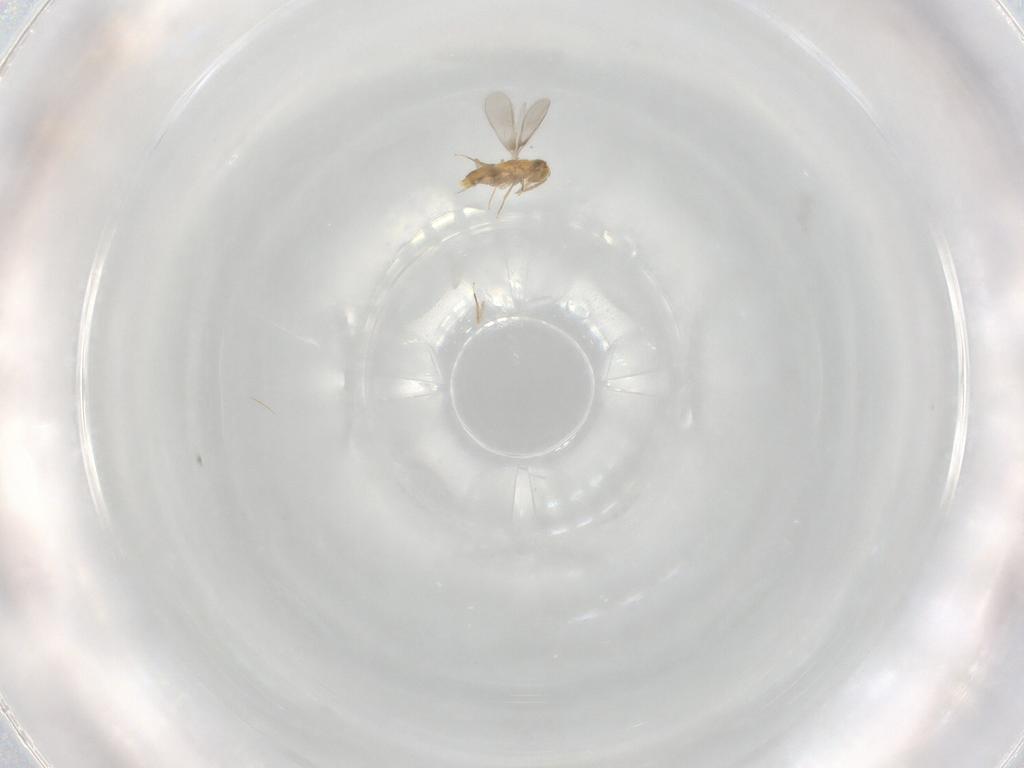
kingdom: Animalia
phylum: Arthropoda
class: Insecta
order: Hymenoptera
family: Aphelinidae
